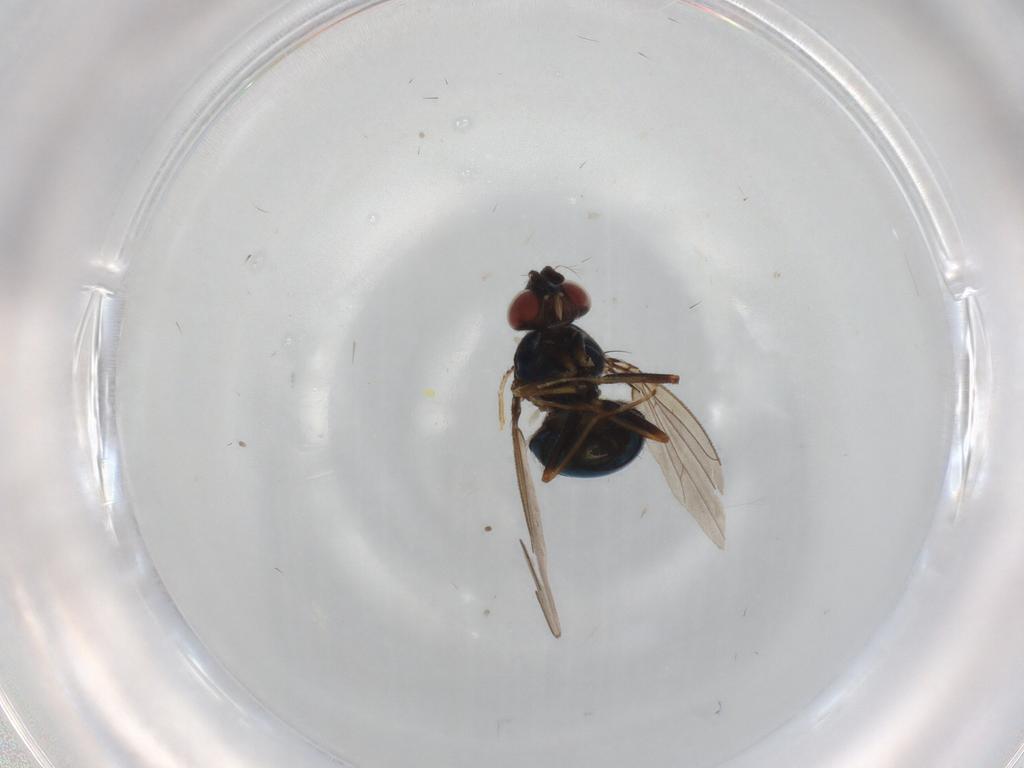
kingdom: Animalia
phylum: Arthropoda
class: Insecta
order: Diptera
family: Ephydridae
